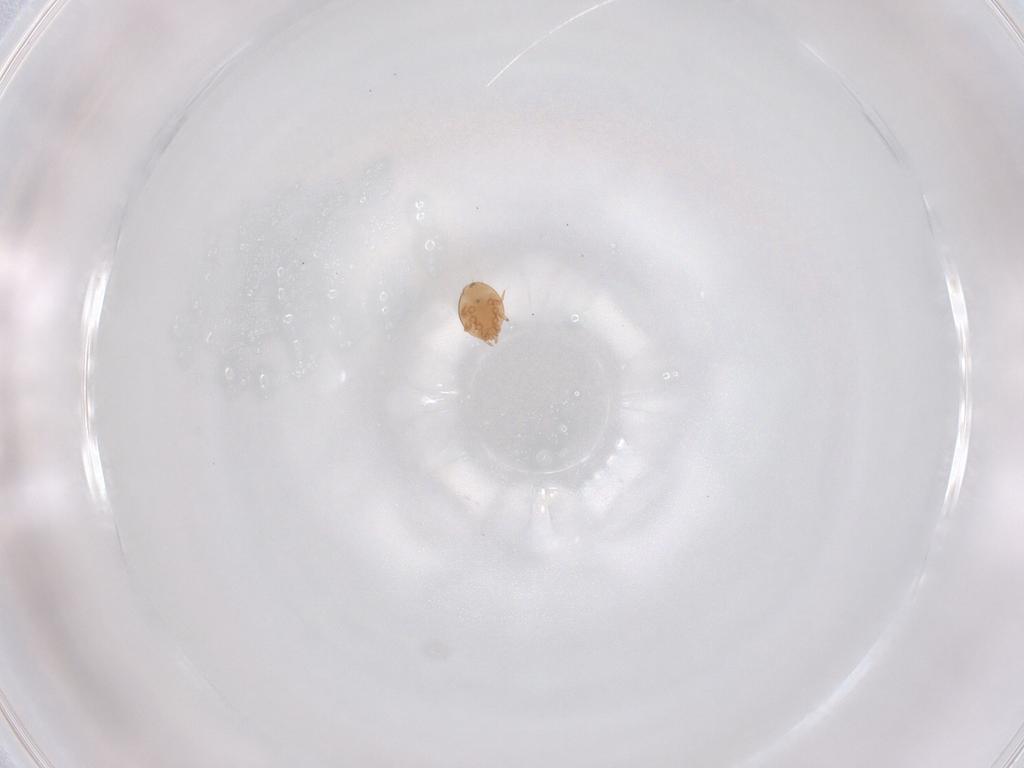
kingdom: Animalia
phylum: Arthropoda
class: Arachnida
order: Mesostigmata
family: Trematuridae
